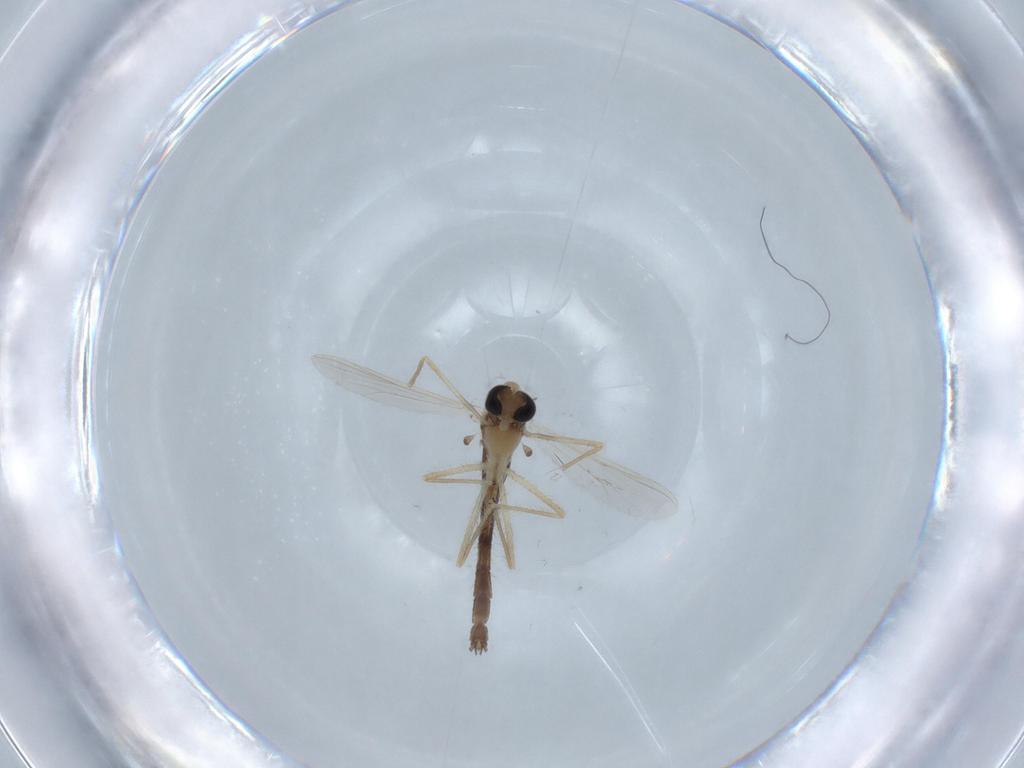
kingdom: Animalia
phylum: Arthropoda
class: Insecta
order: Diptera
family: Chironomidae
